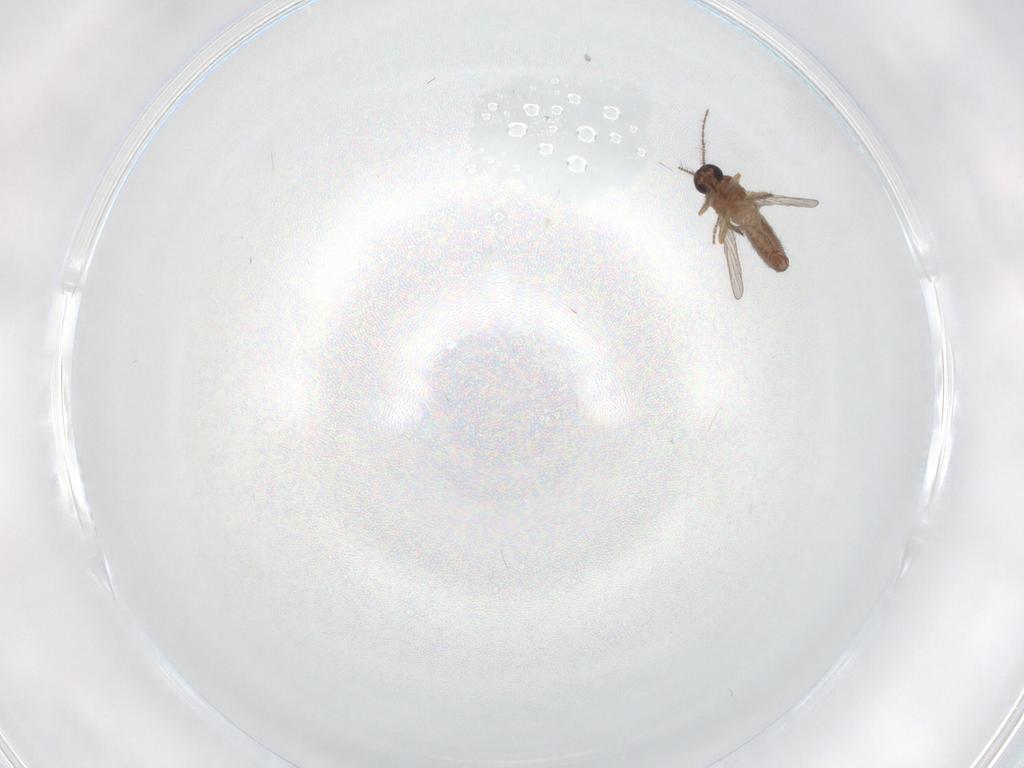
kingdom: Animalia
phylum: Arthropoda
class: Insecta
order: Diptera
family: Ceratopogonidae
